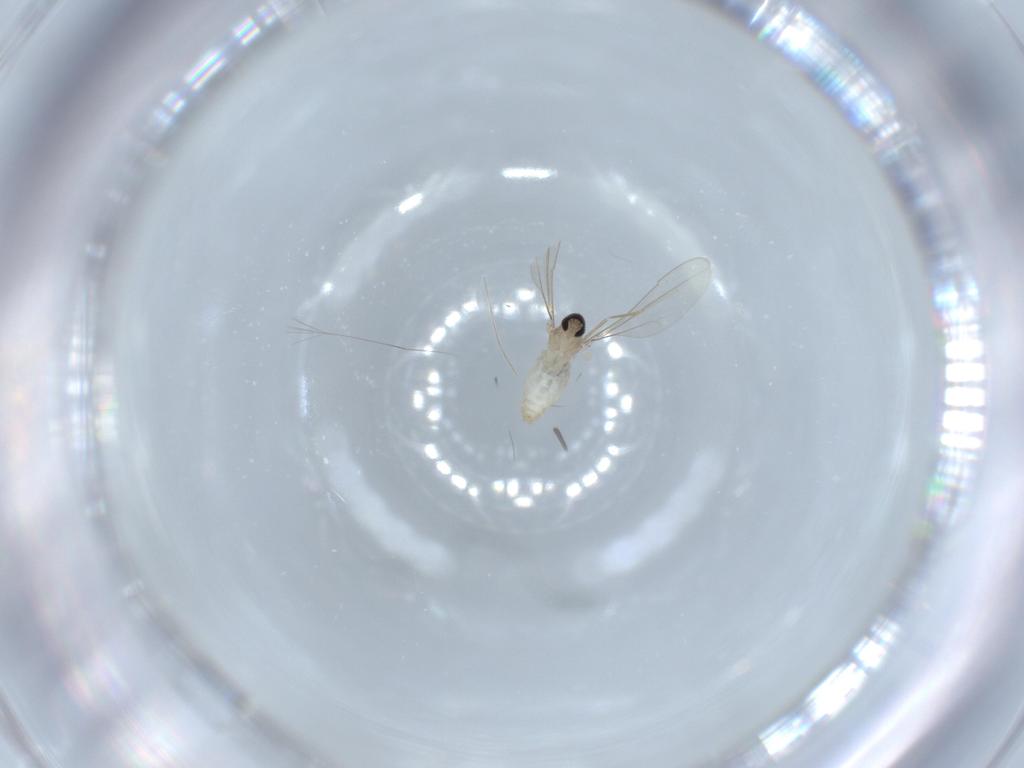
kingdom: Animalia
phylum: Arthropoda
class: Insecta
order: Diptera
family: Cecidomyiidae
